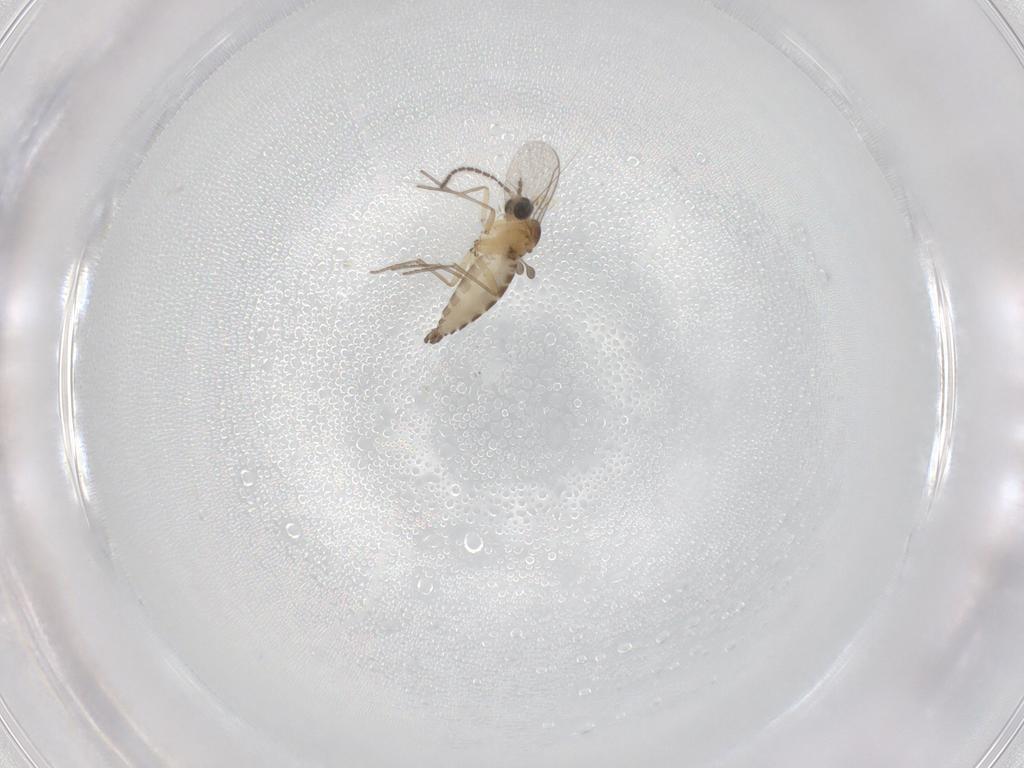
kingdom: Animalia
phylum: Arthropoda
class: Insecta
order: Diptera
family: Sciaridae
